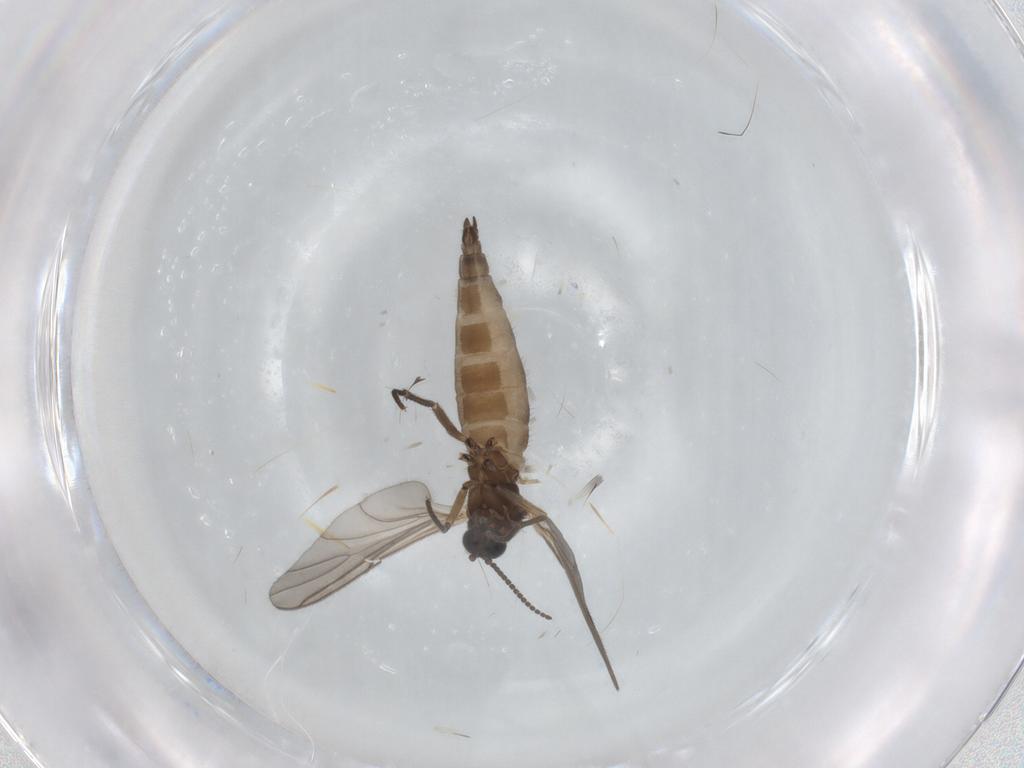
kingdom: Animalia
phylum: Arthropoda
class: Insecta
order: Diptera
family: Sciaridae
